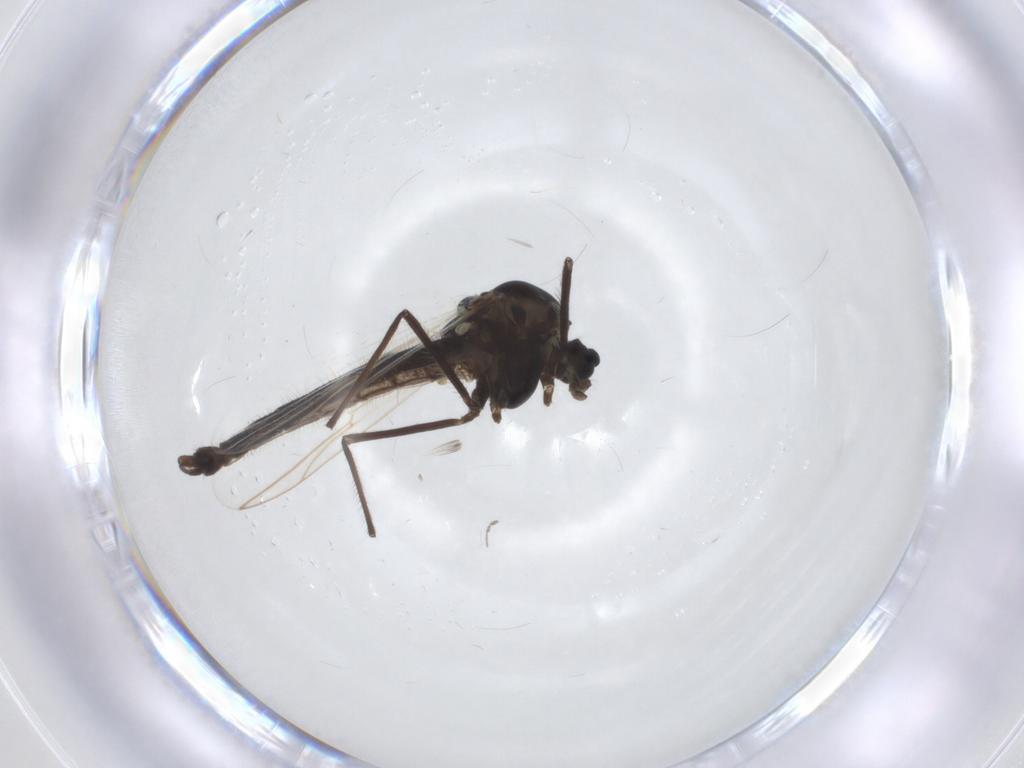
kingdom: Animalia
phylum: Arthropoda
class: Insecta
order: Diptera
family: Chironomidae
